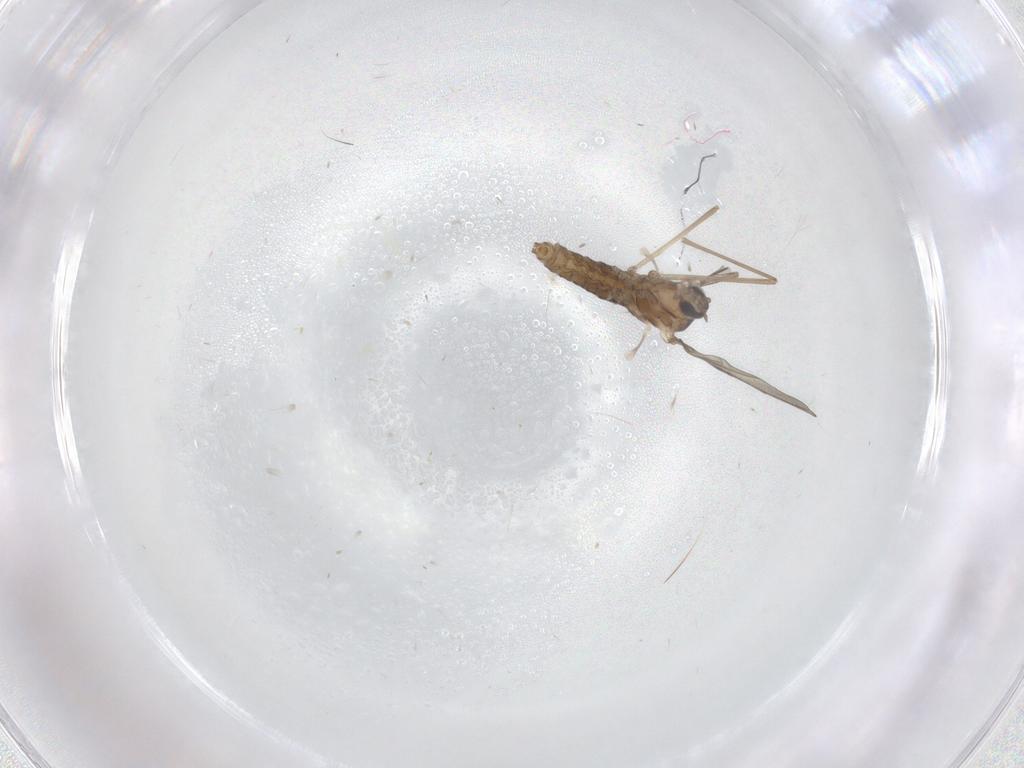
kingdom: Animalia
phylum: Arthropoda
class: Insecta
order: Diptera
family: Cecidomyiidae
